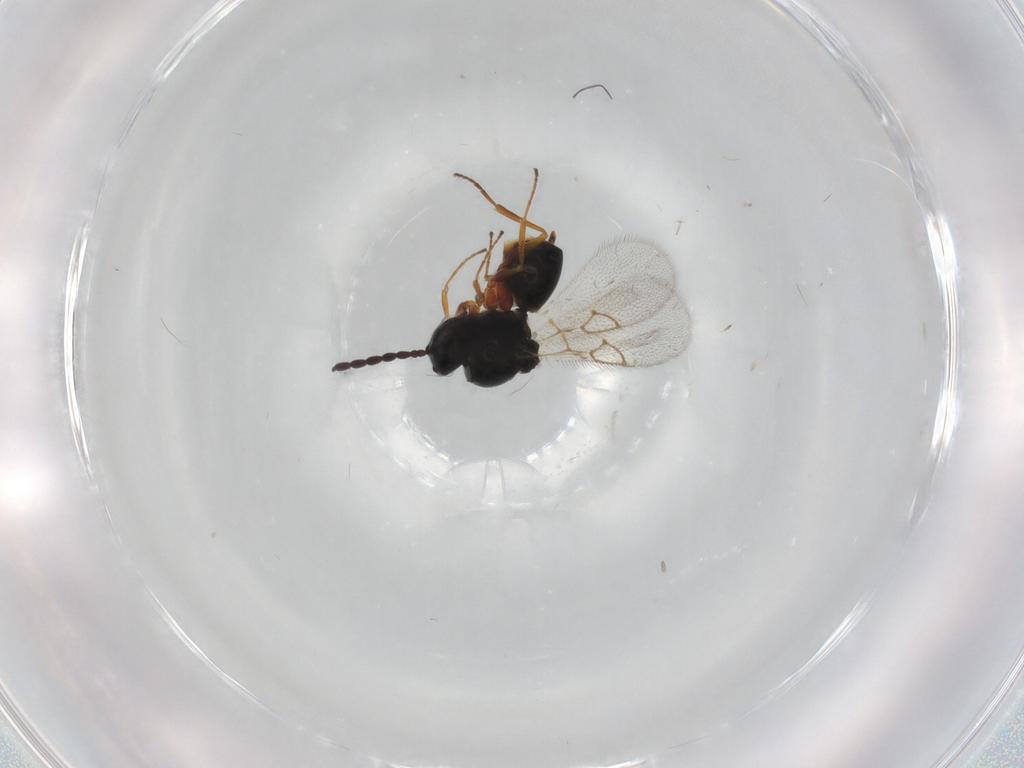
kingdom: Animalia
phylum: Arthropoda
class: Insecta
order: Hymenoptera
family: Figitidae
